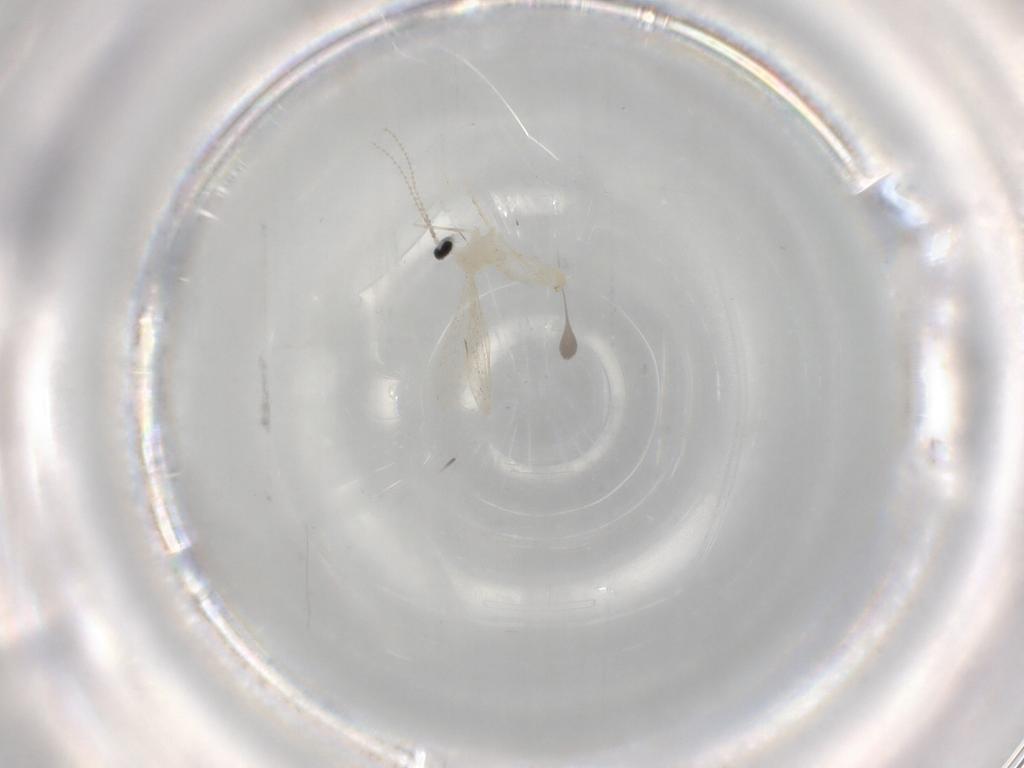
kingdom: Animalia
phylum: Arthropoda
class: Insecta
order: Diptera
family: Cecidomyiidae
